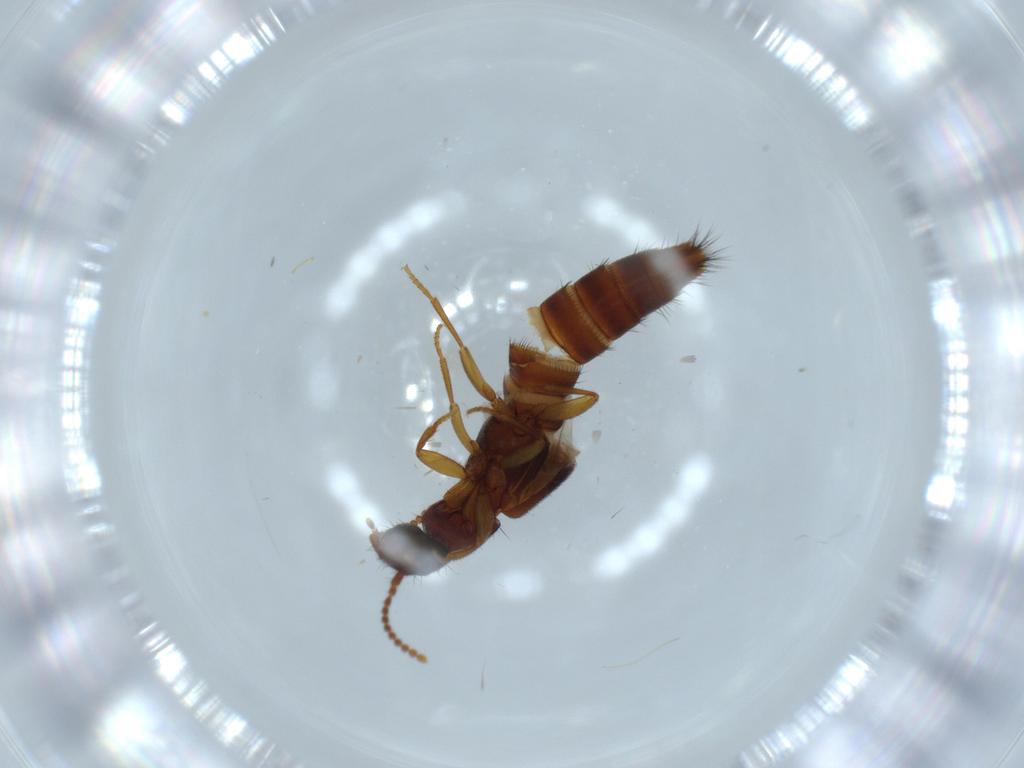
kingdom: Animalia
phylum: Arthropoda
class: Insecta
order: Coleoptera
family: Staphylinidae
